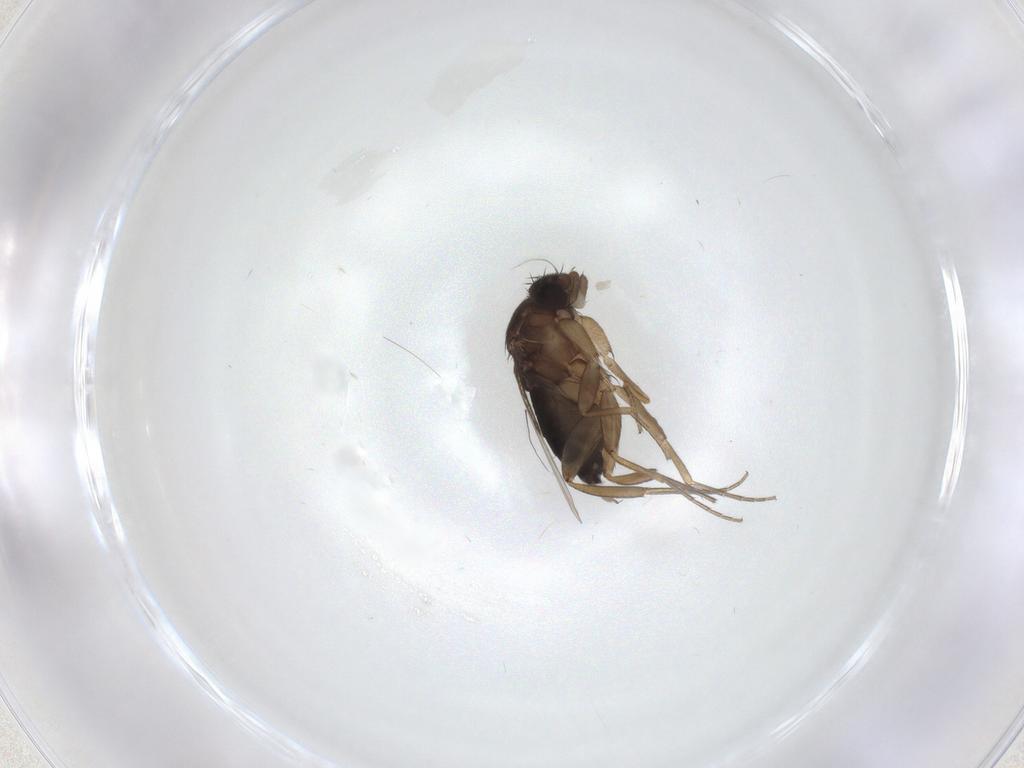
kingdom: Animalia
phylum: Arthropoda
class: Insecta
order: Diptera
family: Phoridae
